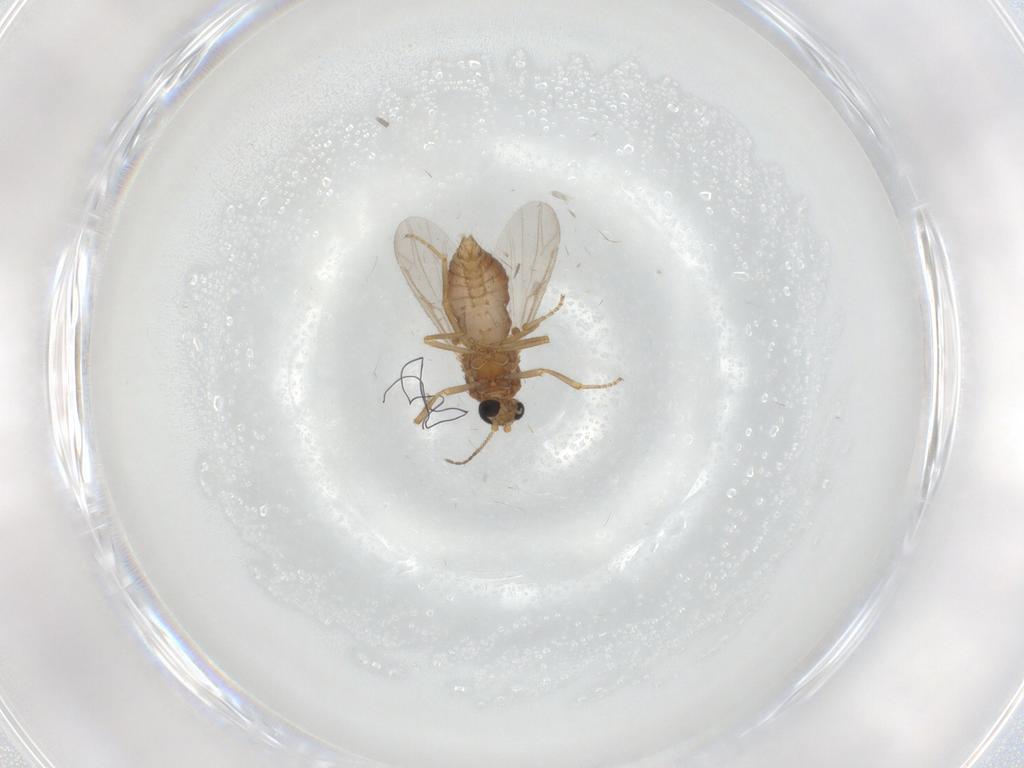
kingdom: Animalia
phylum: Arthropoda
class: Insecta
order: Diptera
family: Ceratopogonidae
